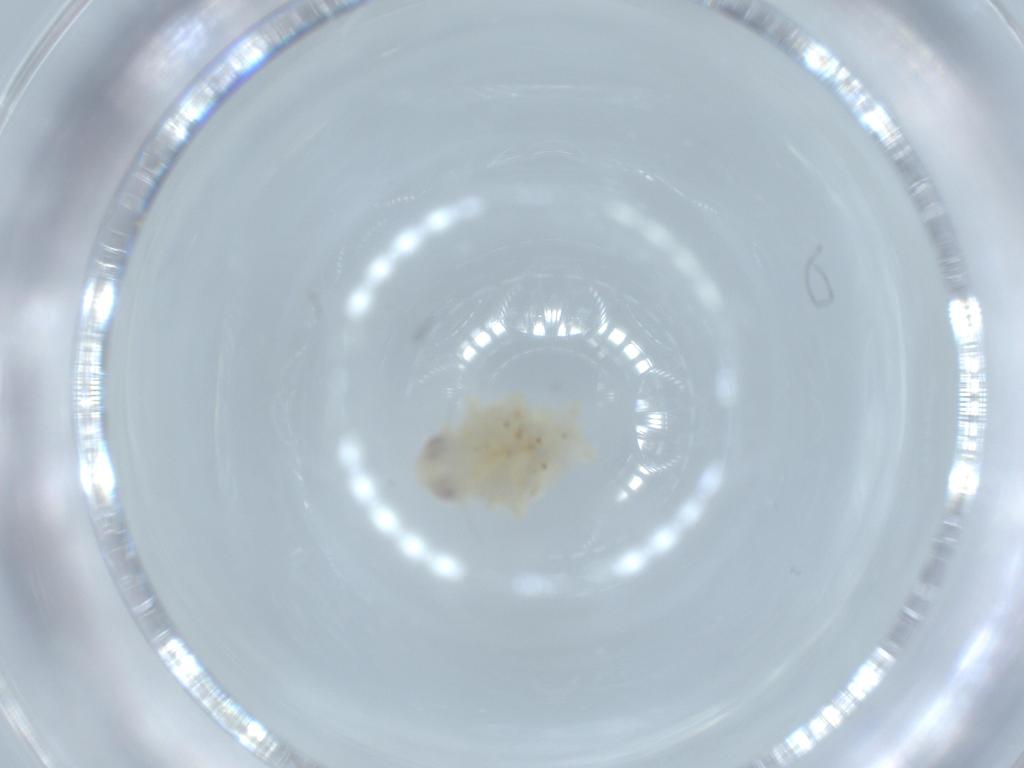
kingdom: Animalia
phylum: Arthropoda
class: Insecta
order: Hemiptera
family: Nogodinidae
